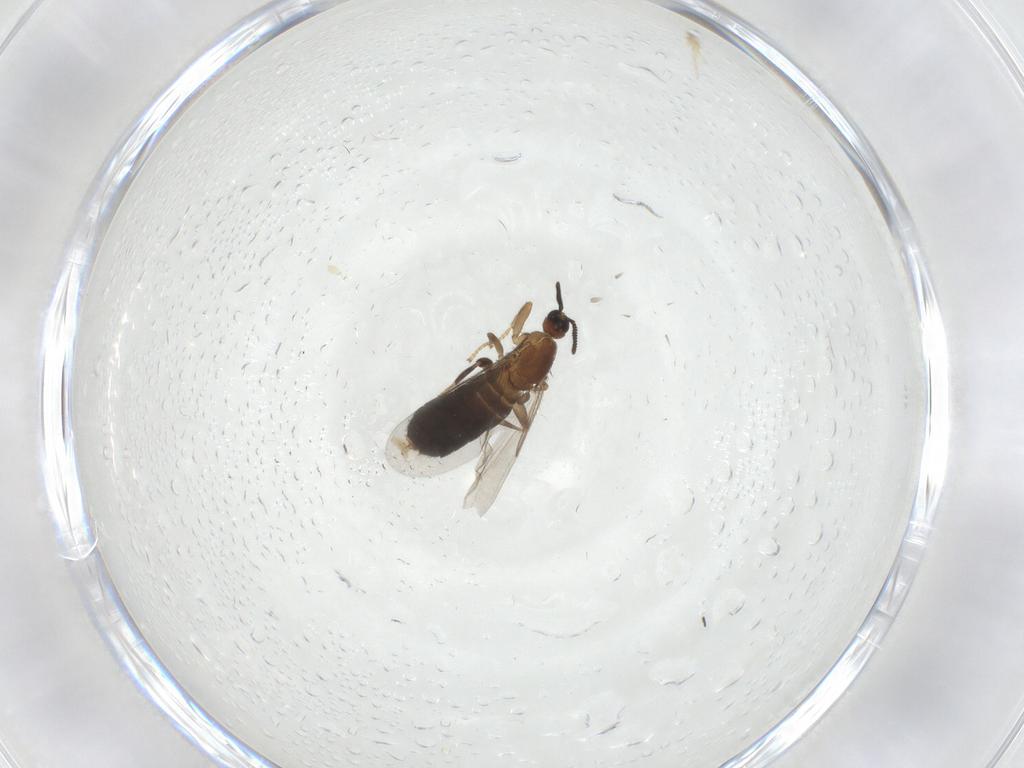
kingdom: Animalia
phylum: Arthropoda
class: Insecta
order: Diptera
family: Scatopsidae
